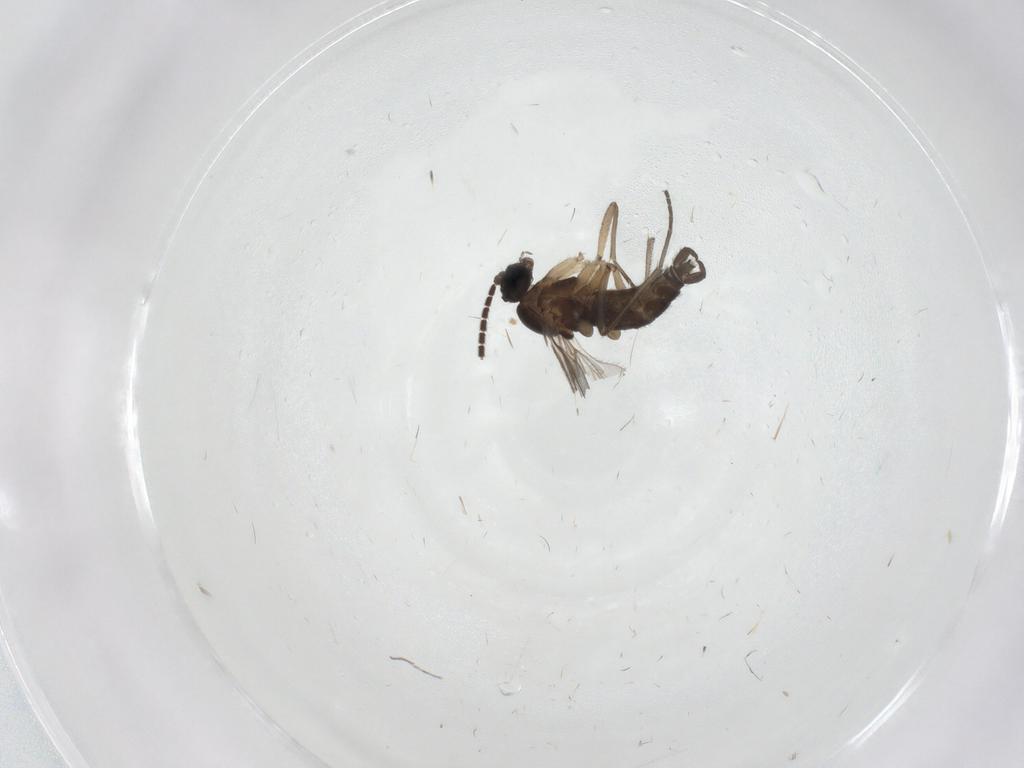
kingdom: Animalia
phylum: Arthropoda
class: Insecta
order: Diptera
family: Sciaridae
